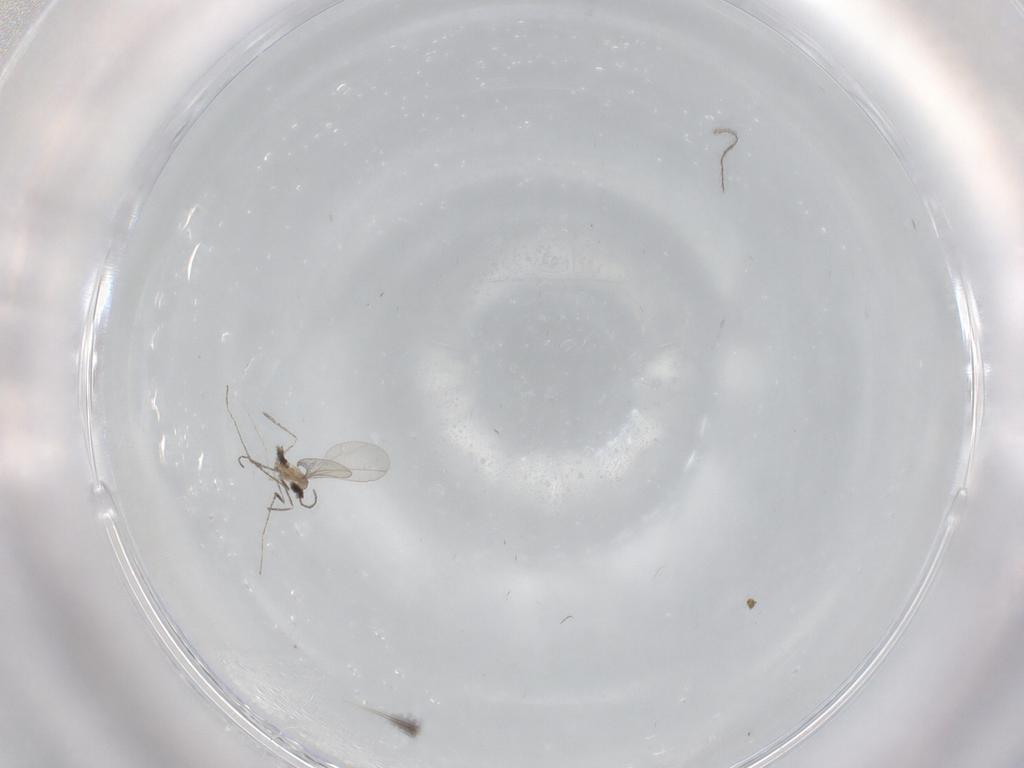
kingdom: Animalia
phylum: Arthropoda
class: Insecta
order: Diptera
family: Cecidomyiidae
